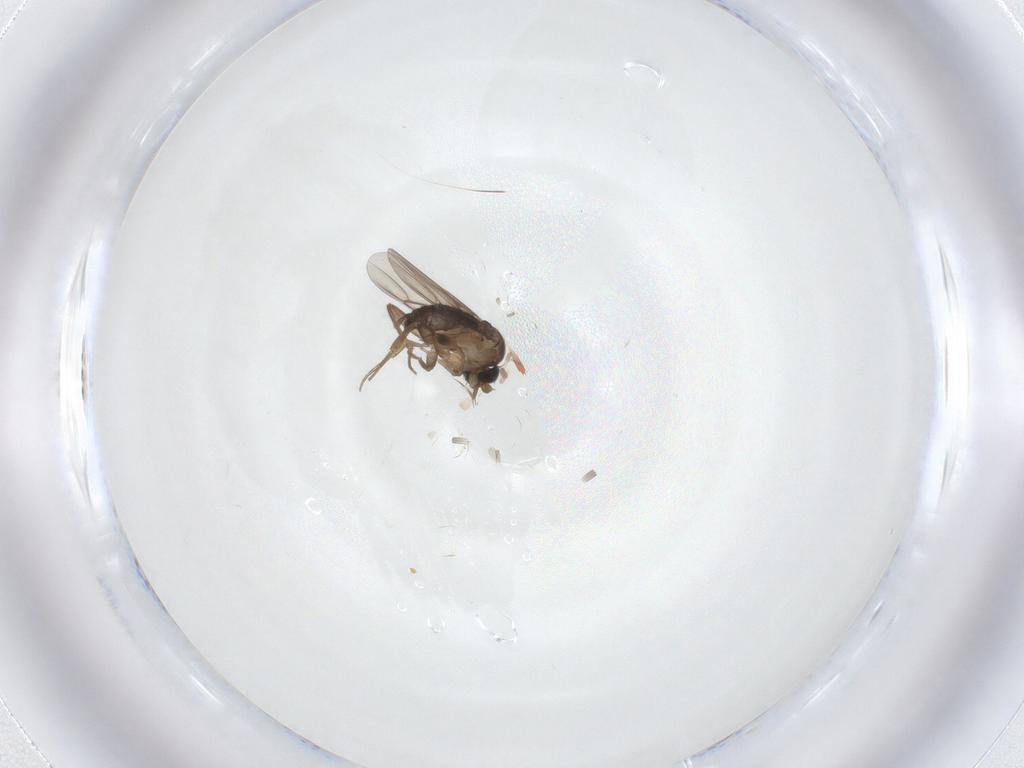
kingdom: Animalia
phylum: Arthropoda
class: Insecta
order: Diptera
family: Phoridae
